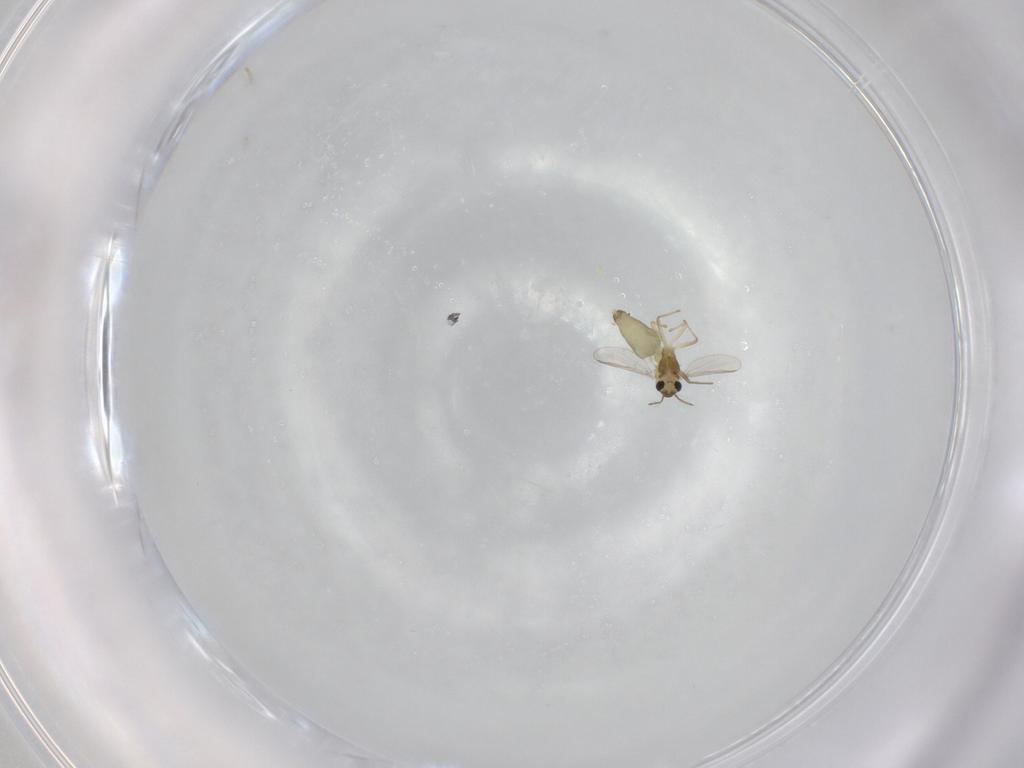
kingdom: Animalia
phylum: Arthropoda
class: Insecta
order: Diptera
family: Chironomidae
